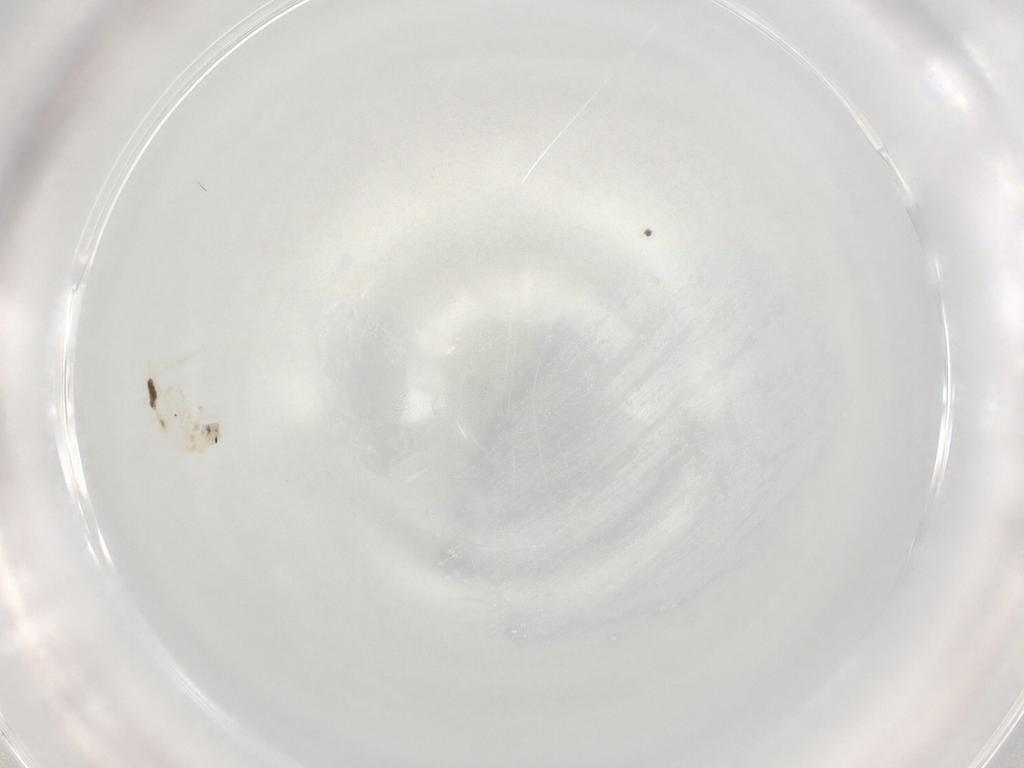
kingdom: Animalia
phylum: Arthropoda
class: Collembola
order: Entomobryomorpha
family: Entomobryidae
